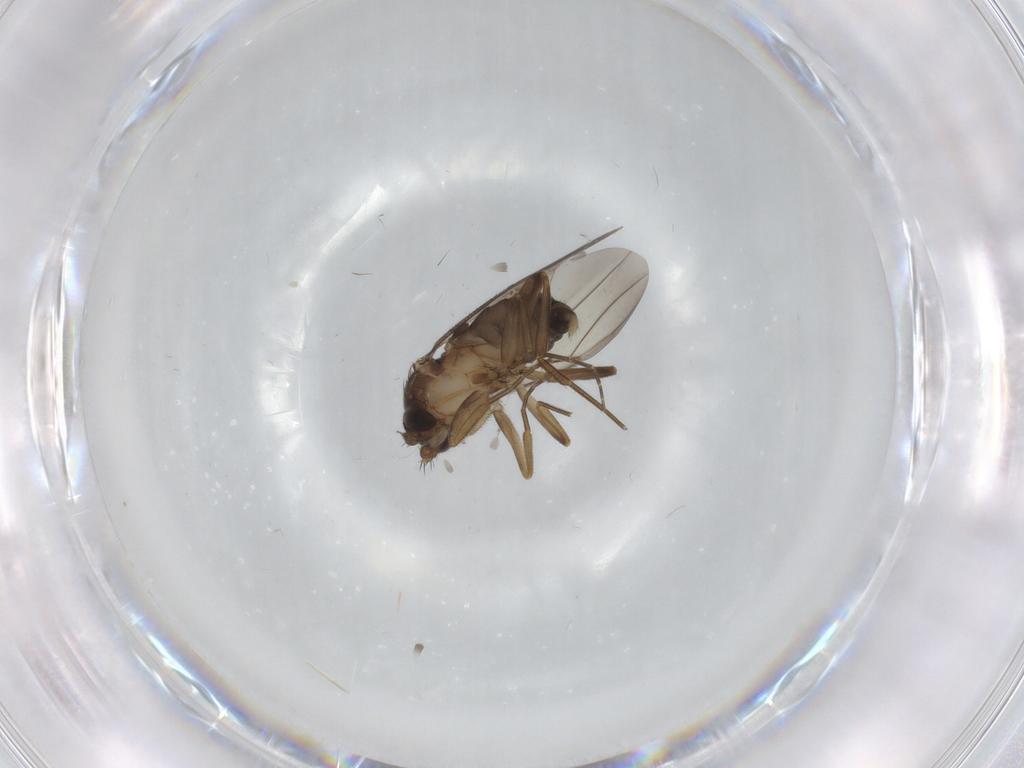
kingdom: Animalia
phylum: Arthropoda
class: Insecta
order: Diptera
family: Phoridae
